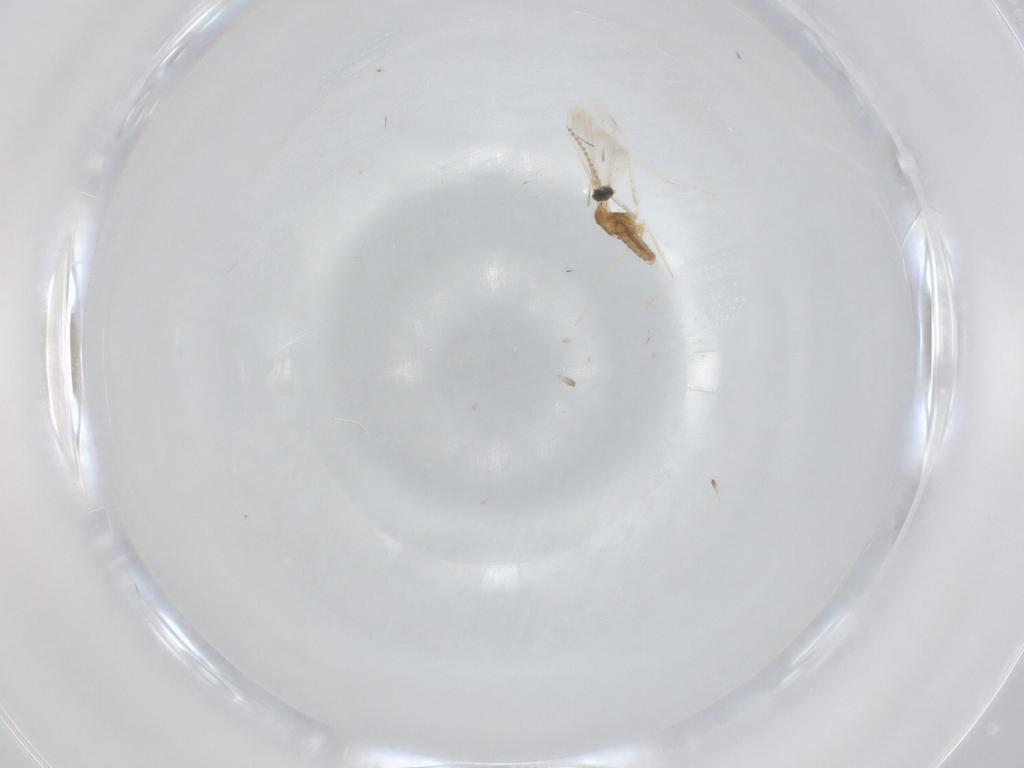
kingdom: Animalia
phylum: Arthropoda
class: Insecta
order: Diptera
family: Cecidomyiidae
